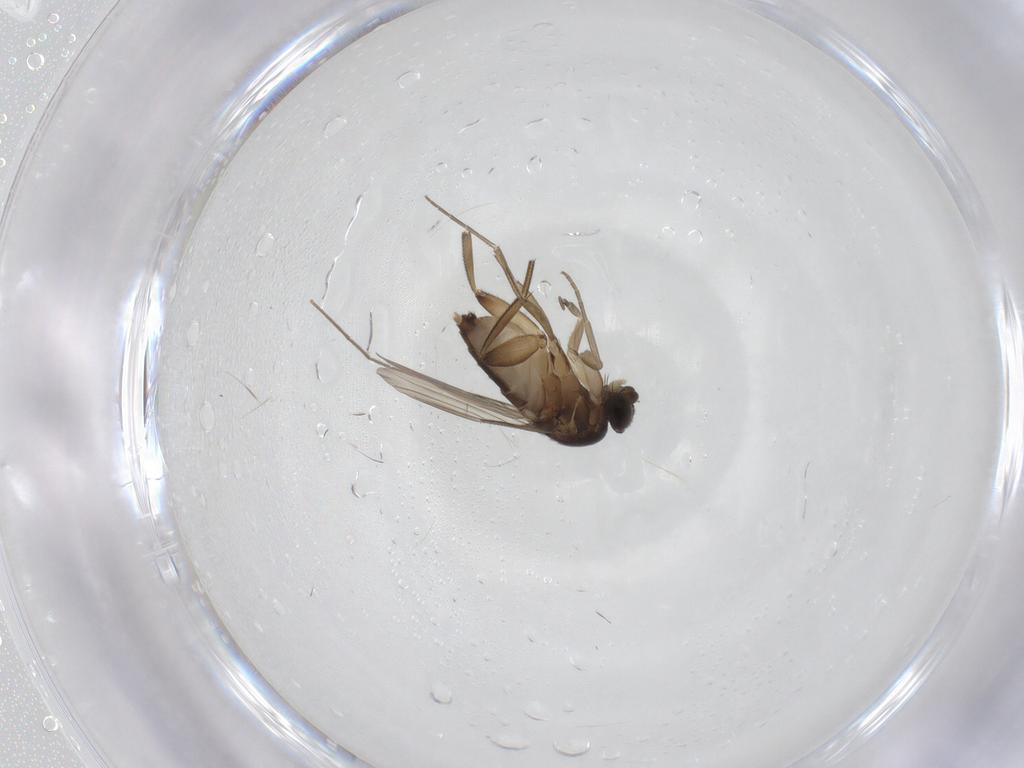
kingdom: Animalia
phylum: Arthropoda
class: Insecta
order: Diptera
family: Phoridae
